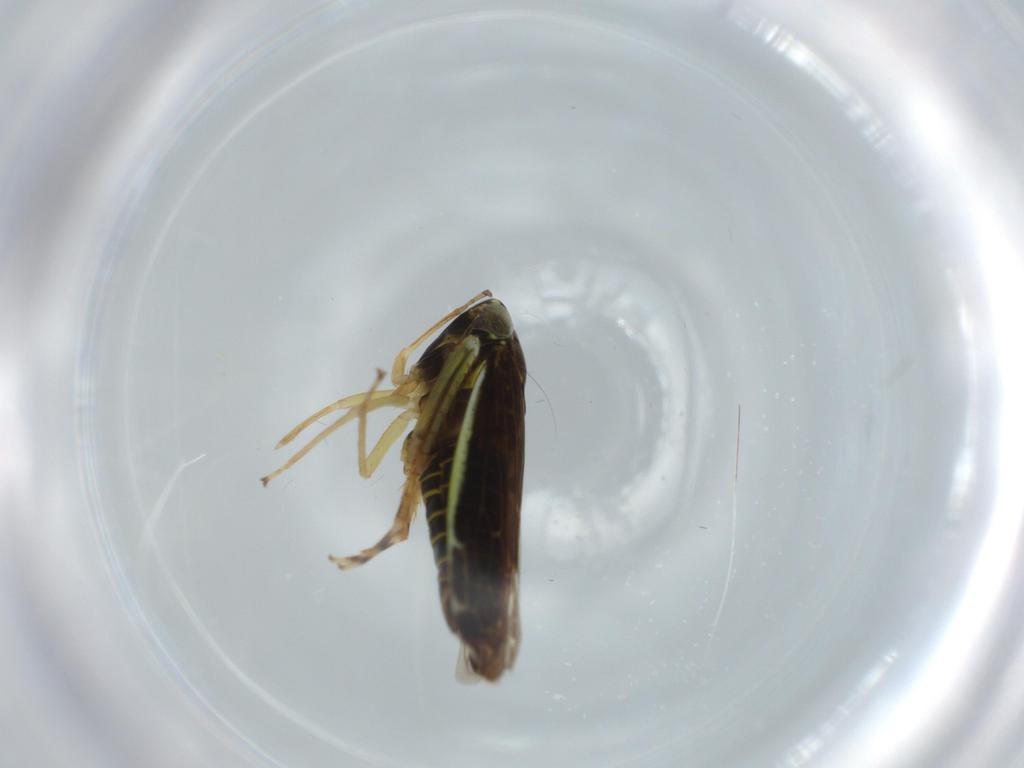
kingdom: Animalia
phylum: Arthropoda
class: Insecta
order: Hemiptera
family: Cicadellidae
